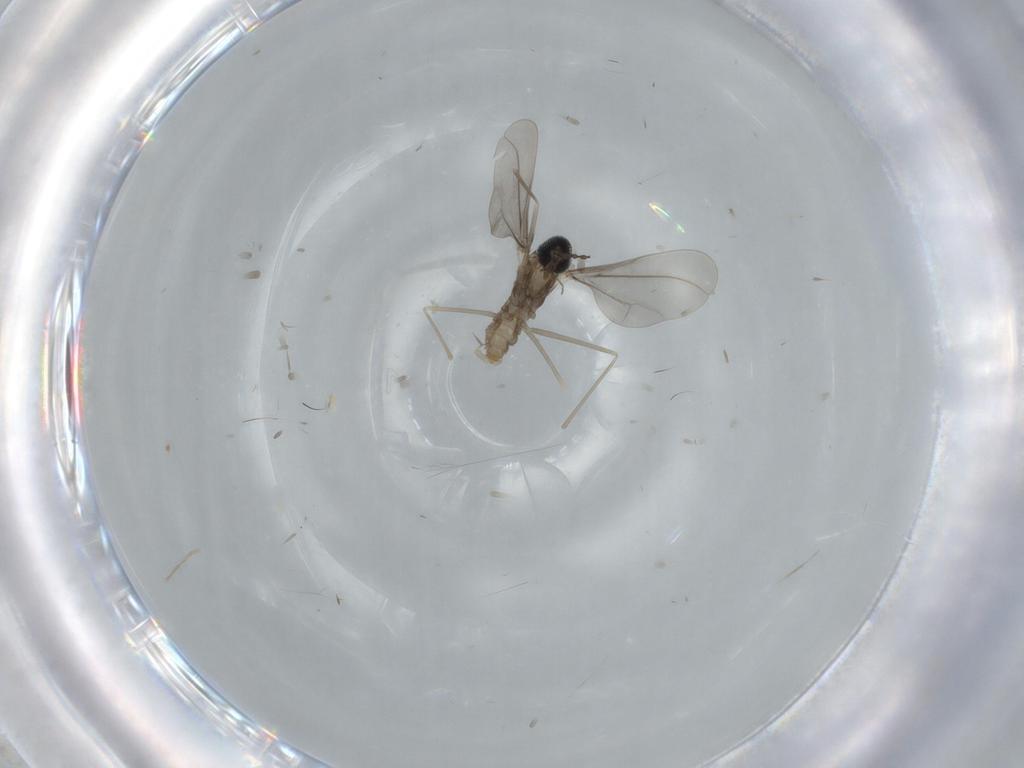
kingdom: Animalia
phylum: Arthropoda
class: Insecta
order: Diptera
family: Cecidomyiidae
